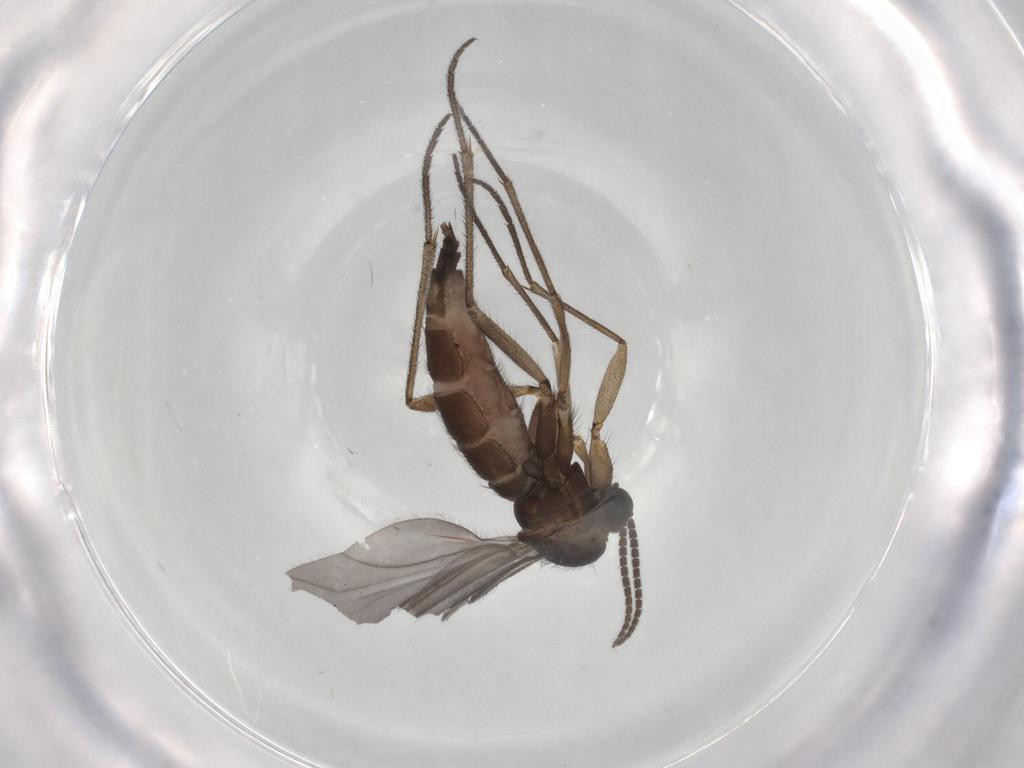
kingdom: Animalia
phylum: Arthropoda
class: Insecta
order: Diptera
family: Sciaridae
